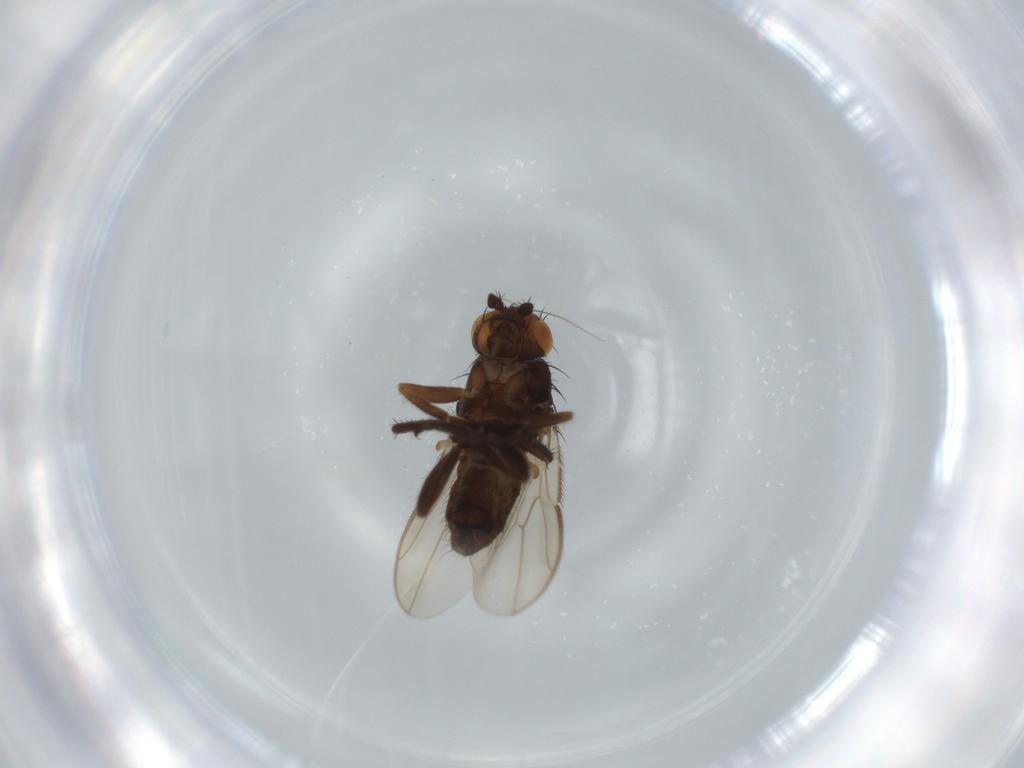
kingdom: Animalia
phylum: Arthropoda
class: Insecta
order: Diptera
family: Sphaeroceridae
